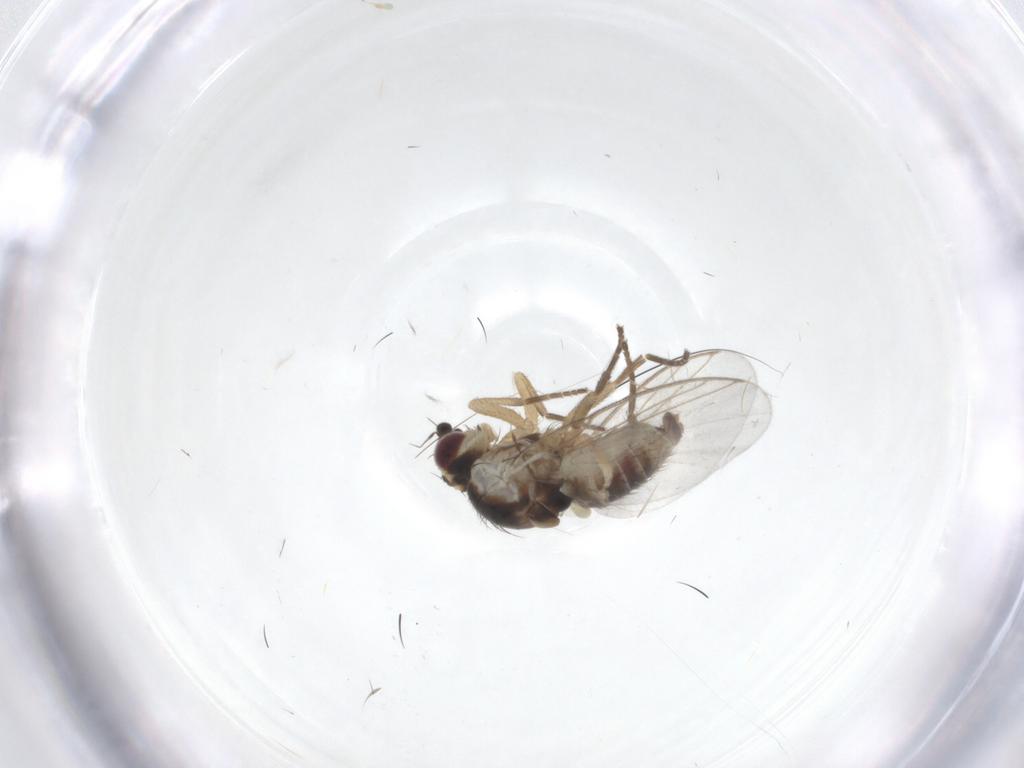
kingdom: Animalia
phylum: Arthropoda
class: Insecta
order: Diptera
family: Agromyzidae
